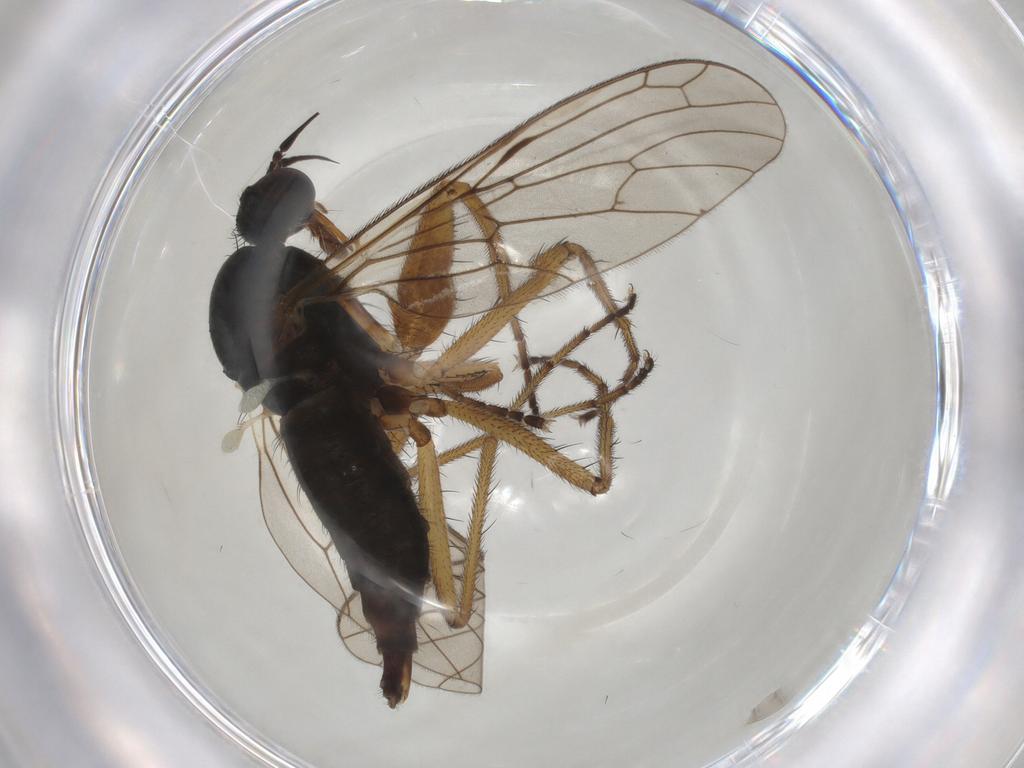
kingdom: Animalia
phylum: Arthropoda
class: Insecta
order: Diptera
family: Empididae
